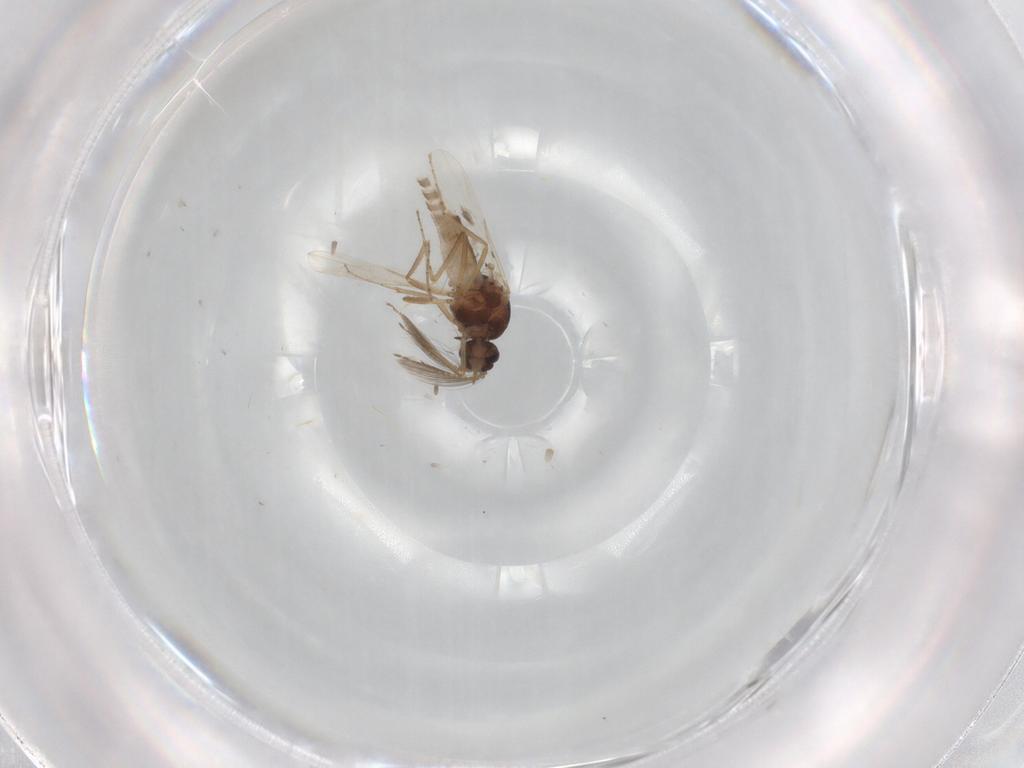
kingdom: Animalia
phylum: Arthropoda
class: Insecta
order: Diptera
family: Ceratopogonidae
